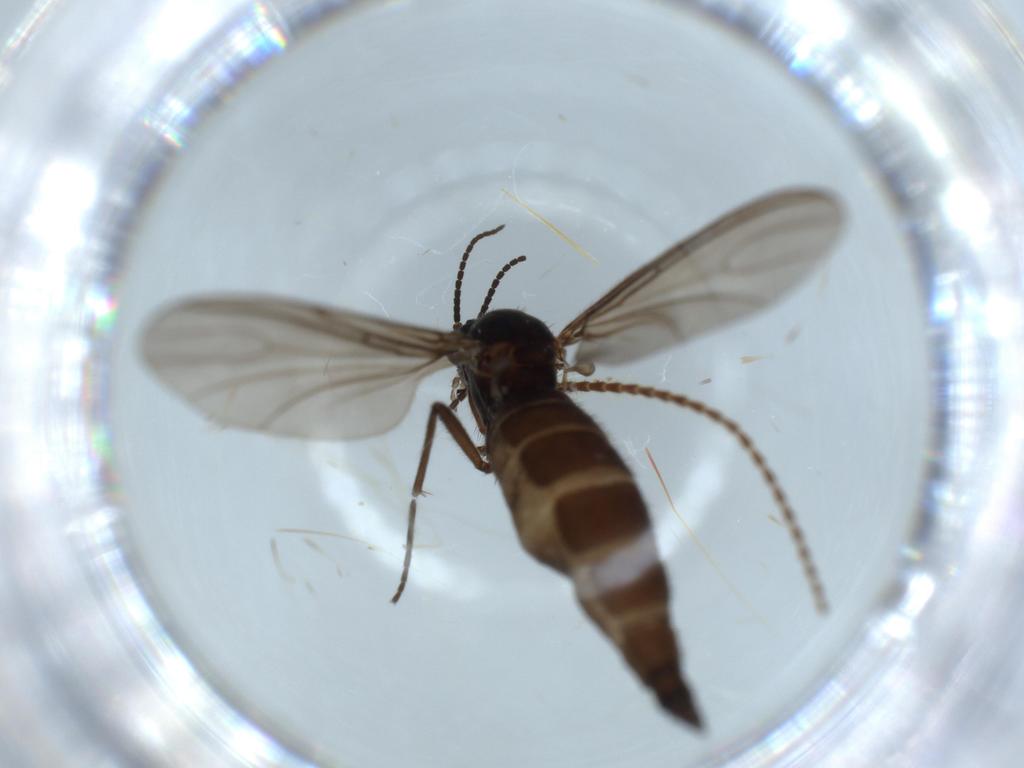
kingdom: Animalia
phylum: Arthropoda
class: Insecta
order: Diptera
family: Sciaridae
